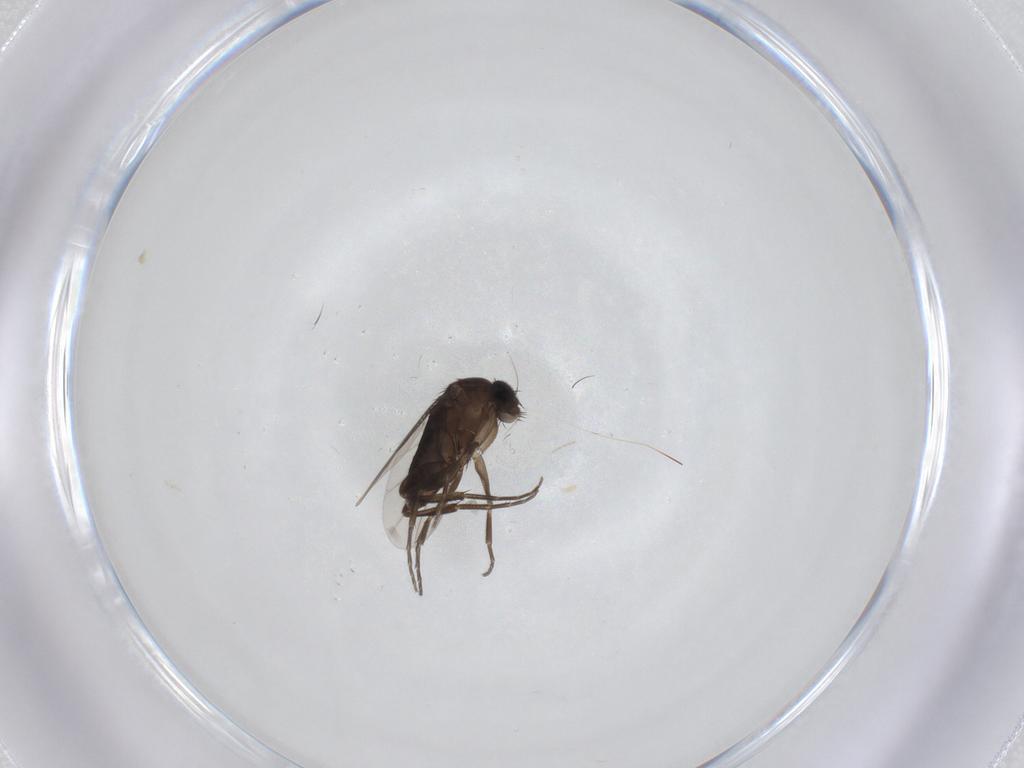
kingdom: Animalia
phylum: Arthropoda
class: Insecta
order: Diptera
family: Phoridae
